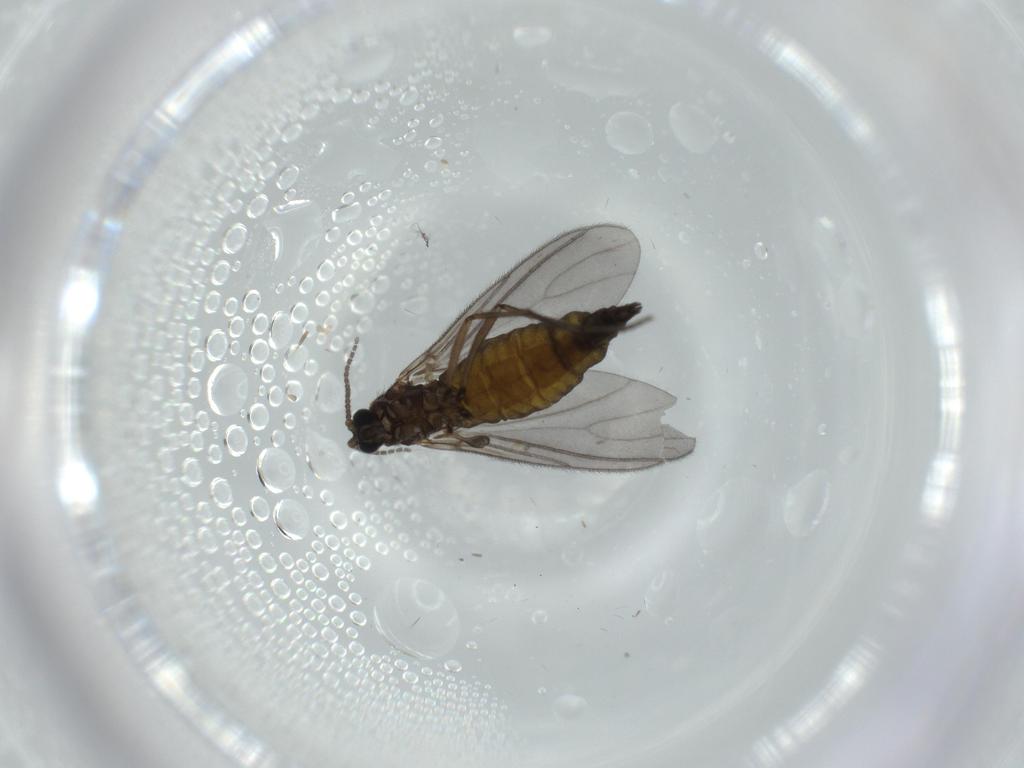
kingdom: Animalia
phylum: Arthropoda
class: Insecta
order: Diptera
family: Sciaridae
